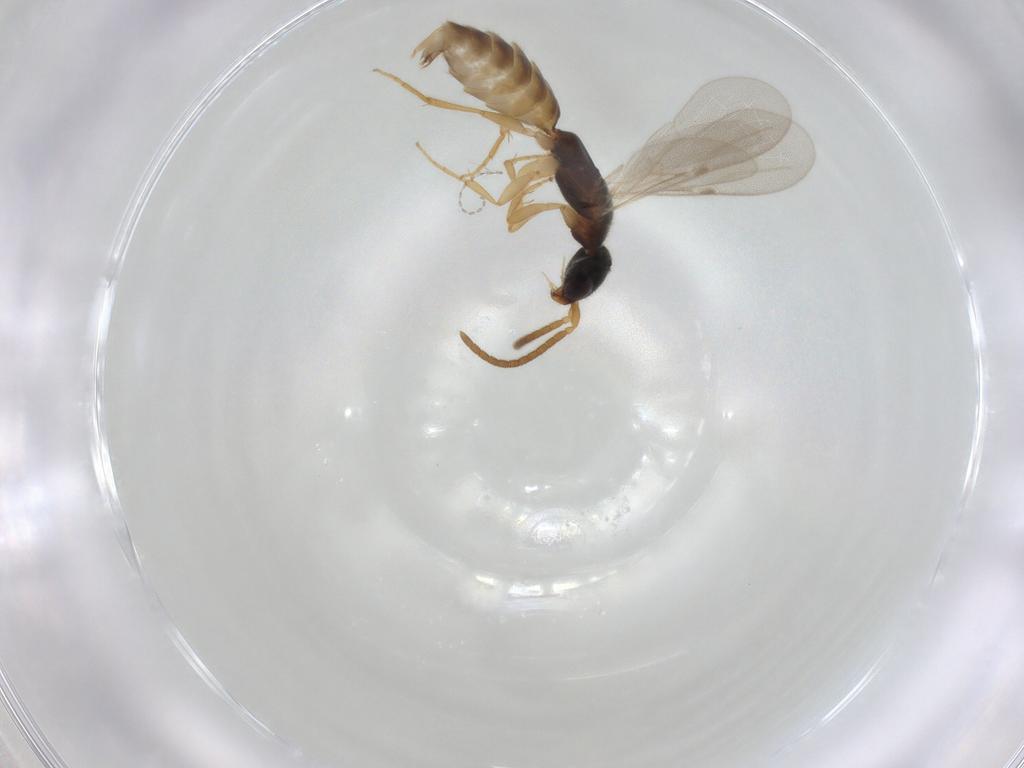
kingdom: Animalia
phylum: Arthropoda
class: Insecta
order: Hymenoptera
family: Bethylidae
